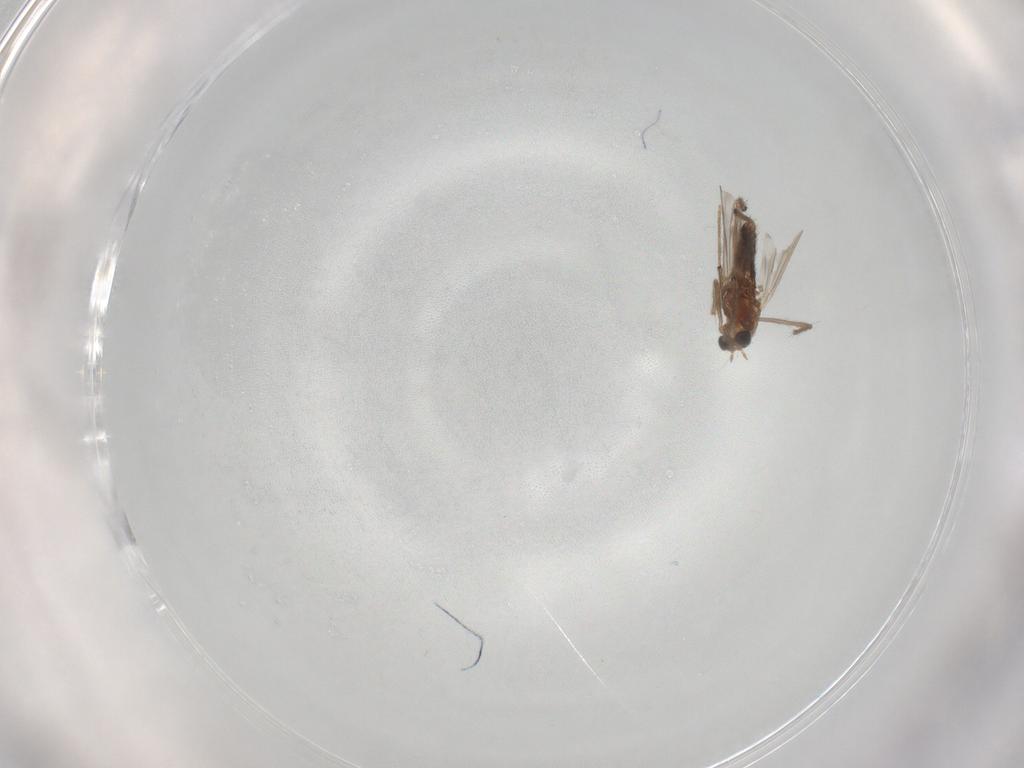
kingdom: Animalia
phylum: Arthropoda
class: Insecta
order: Diptera
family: Chironomidae
